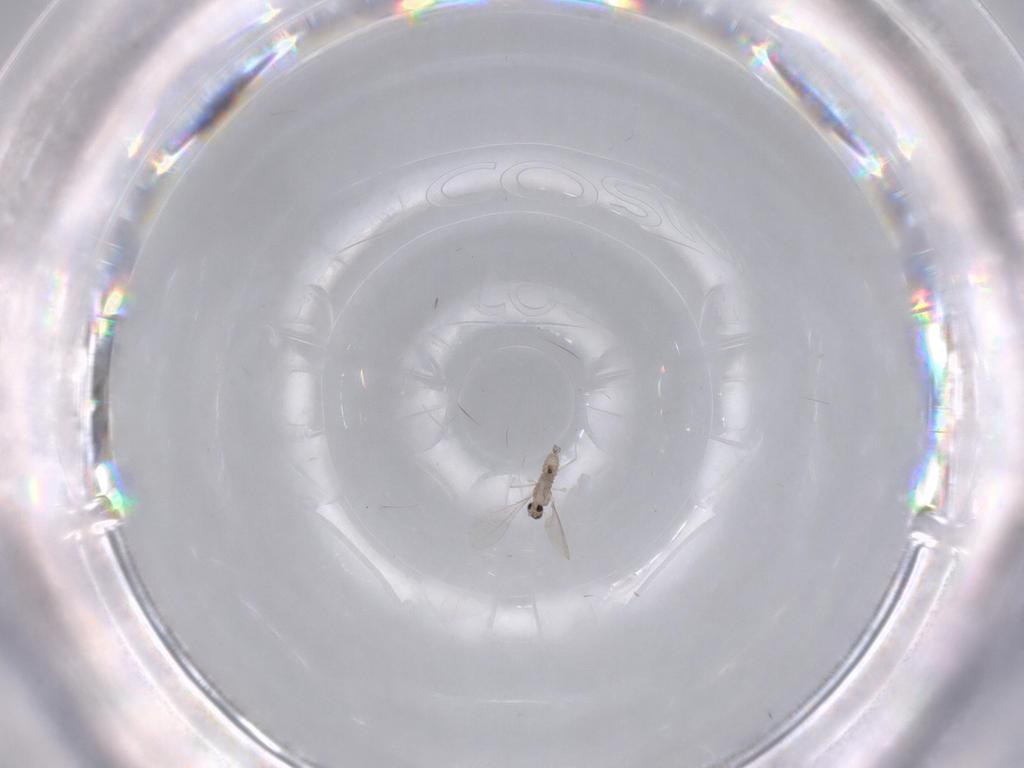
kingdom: Animalia
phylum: Arthropoda
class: Insecta
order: Diptera
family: Cecidomyiidae
